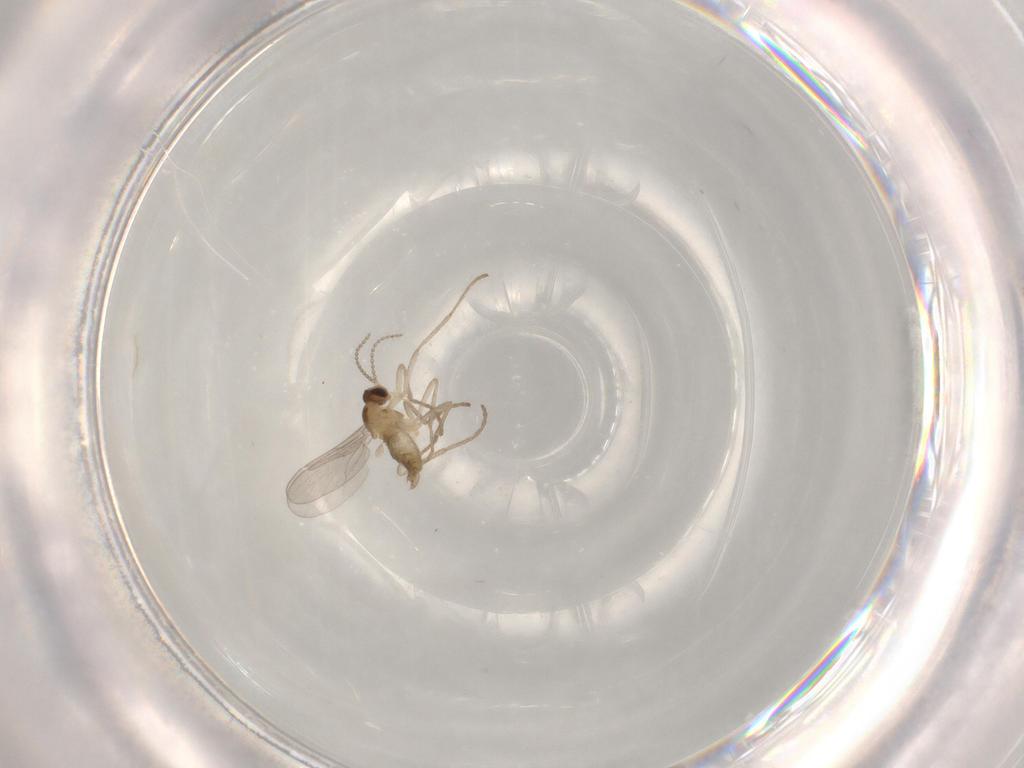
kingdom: Animalia
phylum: Arthropoda
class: Insecta
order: Diptera
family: Cecidomyiidae
